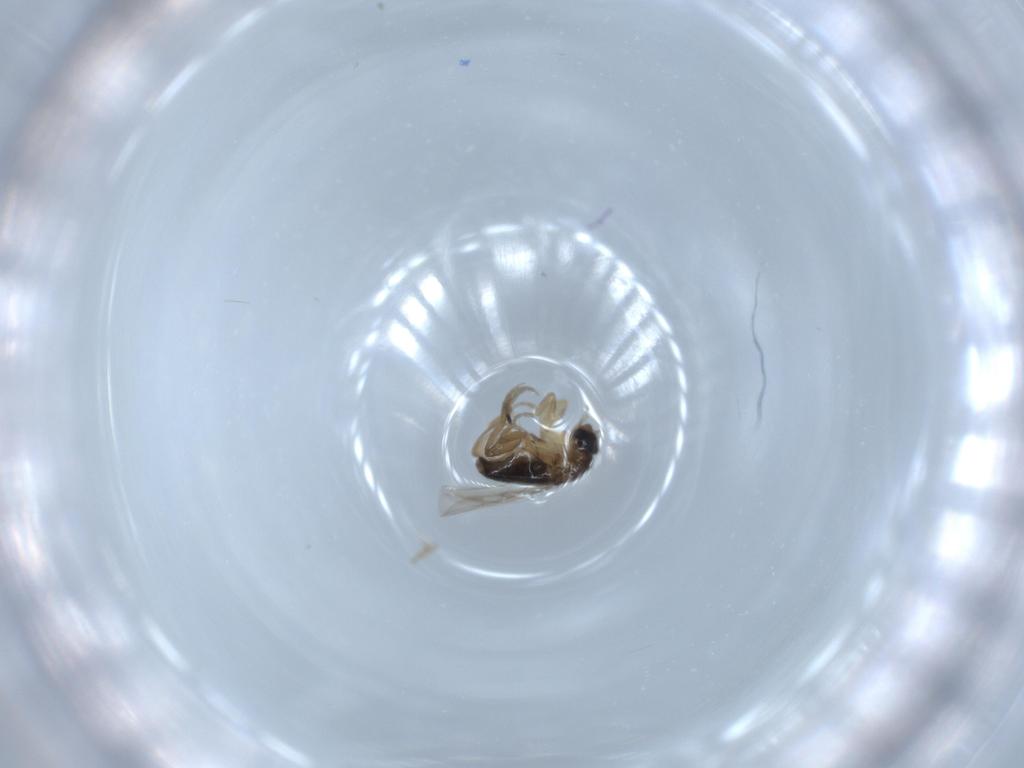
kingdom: Animalia
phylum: Arthropoda
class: Insecta
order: Diptera
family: Phoridae
